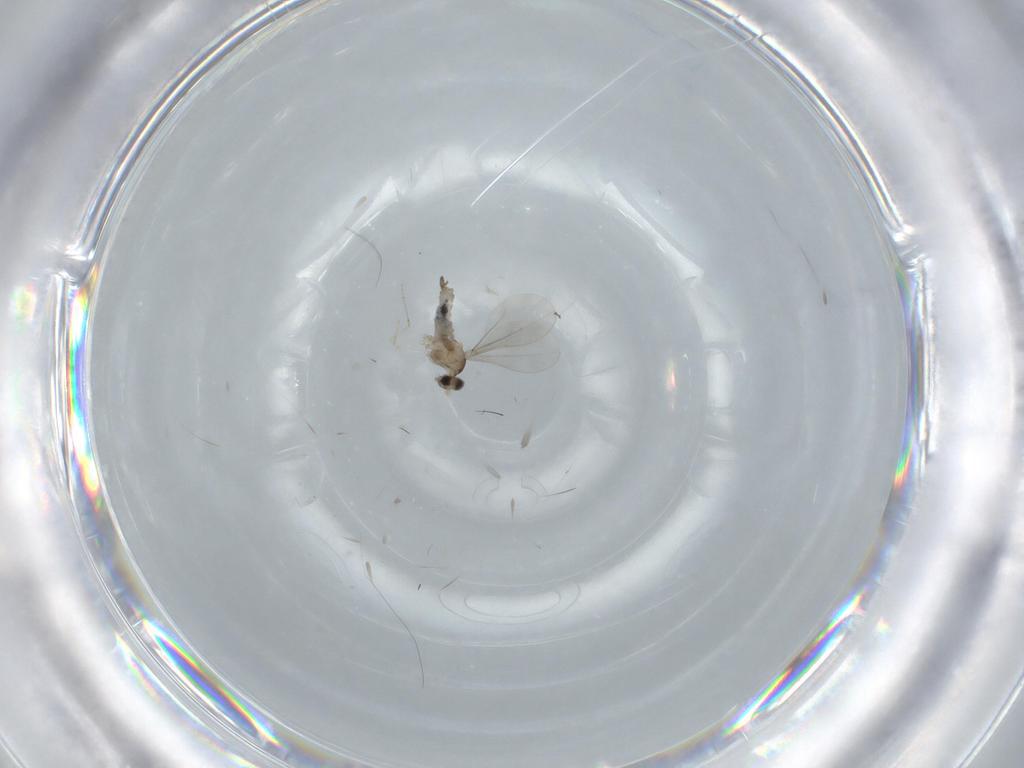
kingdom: Animalia
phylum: Arthropoda
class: Insecta
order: Diptera
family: Cecidomyiidae
